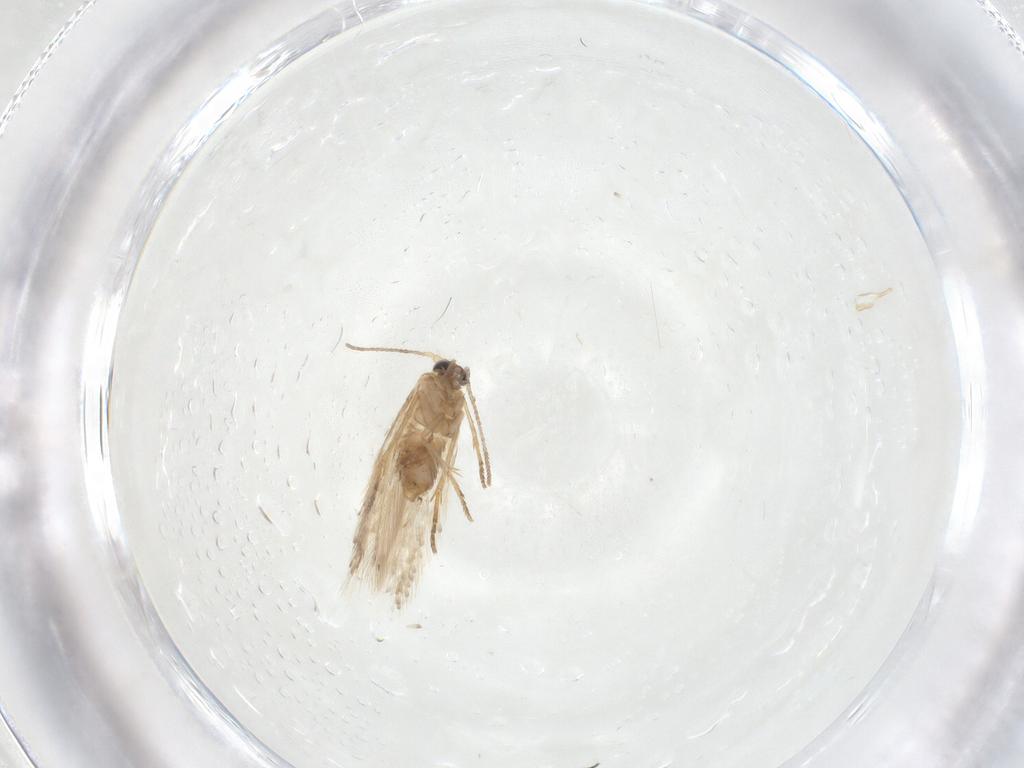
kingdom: Animalia
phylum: Arthropoda
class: Insecta
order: Lepidoptera
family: Nepticulidae
